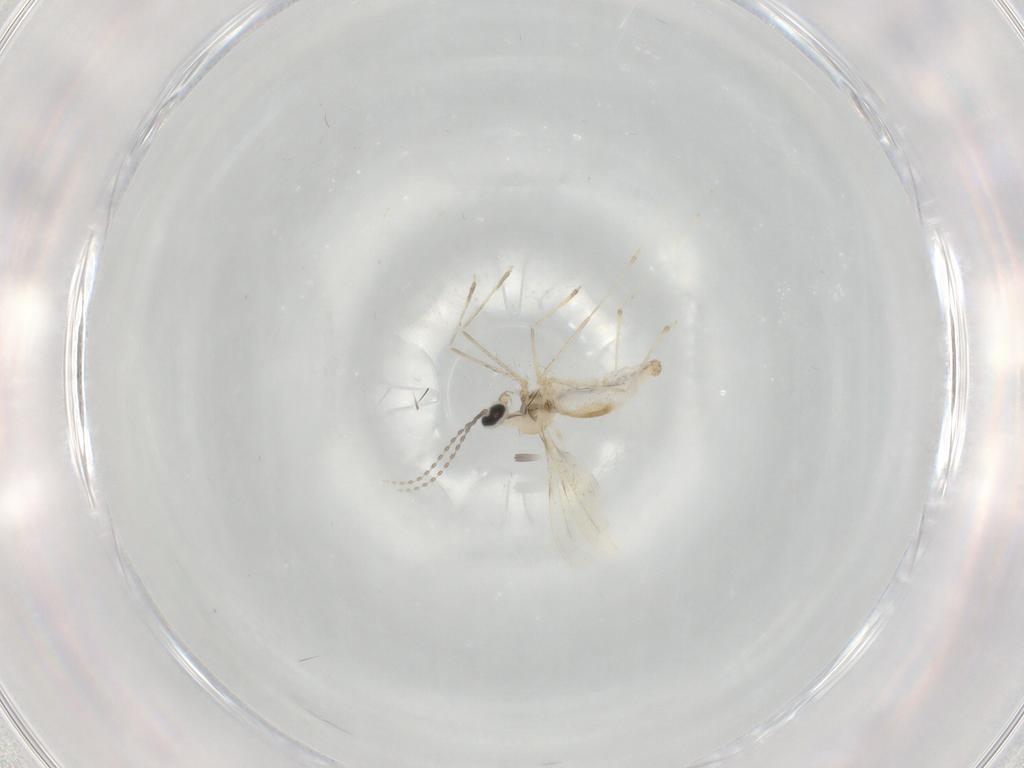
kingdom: Animalia
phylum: Arthropoda
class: Insecta
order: Diptera
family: Cecidomyiidae
